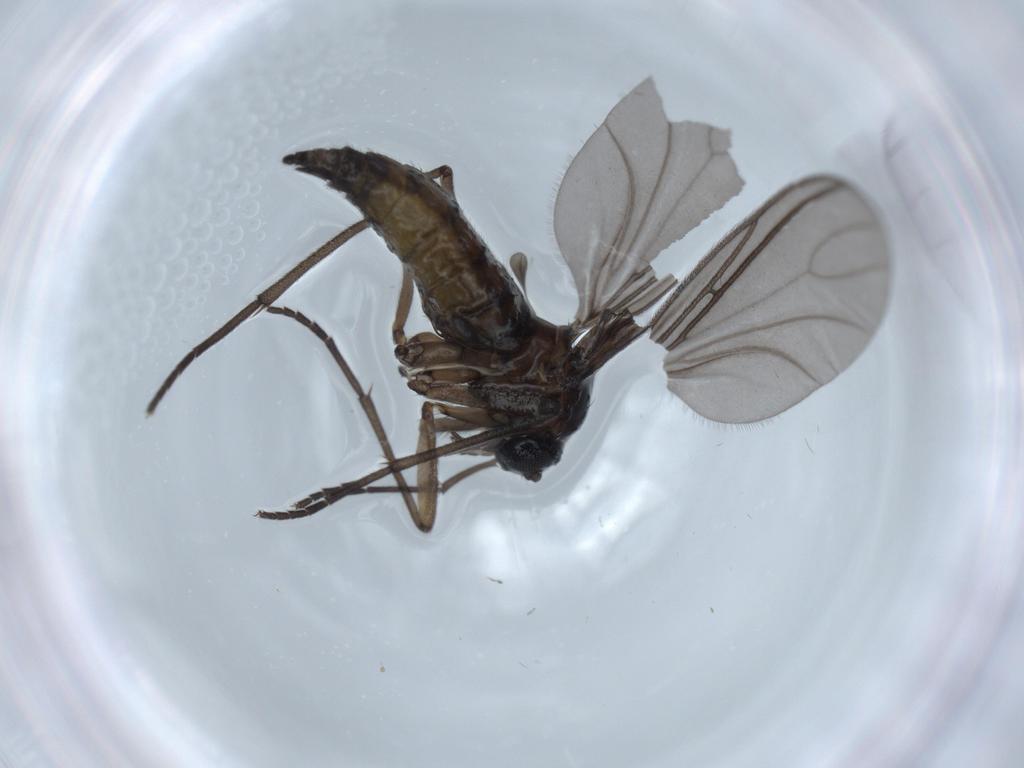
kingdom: Animalia
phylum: Arthropoda
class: Insecta
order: Diptera
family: Sciaridae
